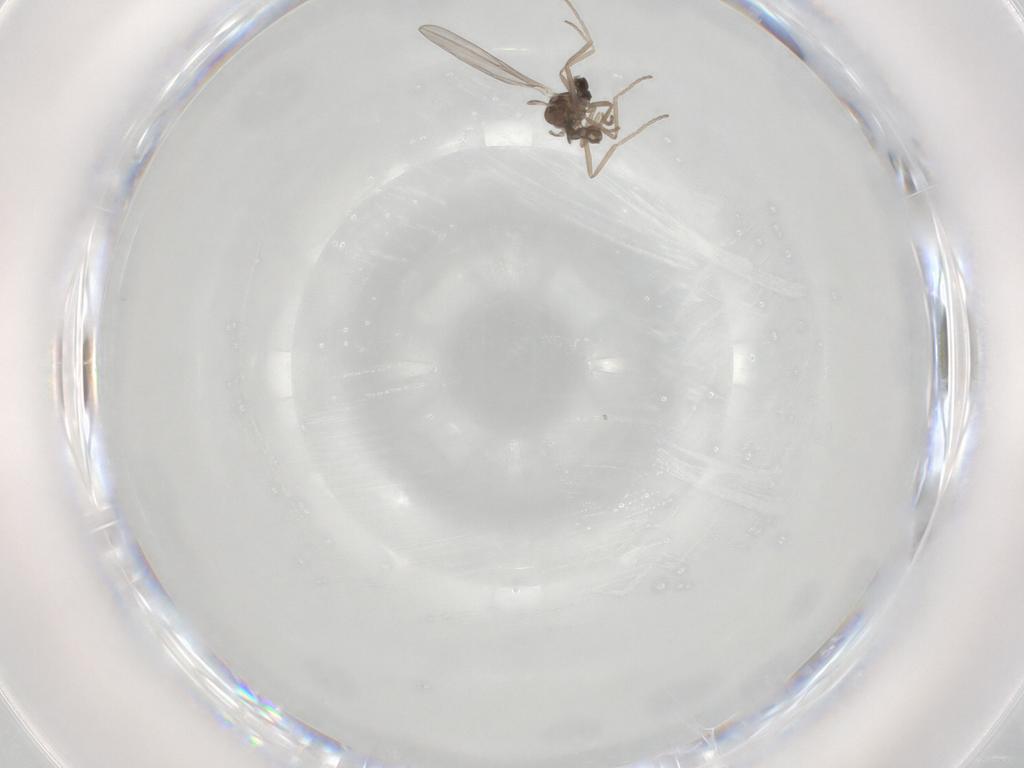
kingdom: Animalia
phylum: Arthropoda
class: Insecta
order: Diptera
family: Cecidomyiidae
